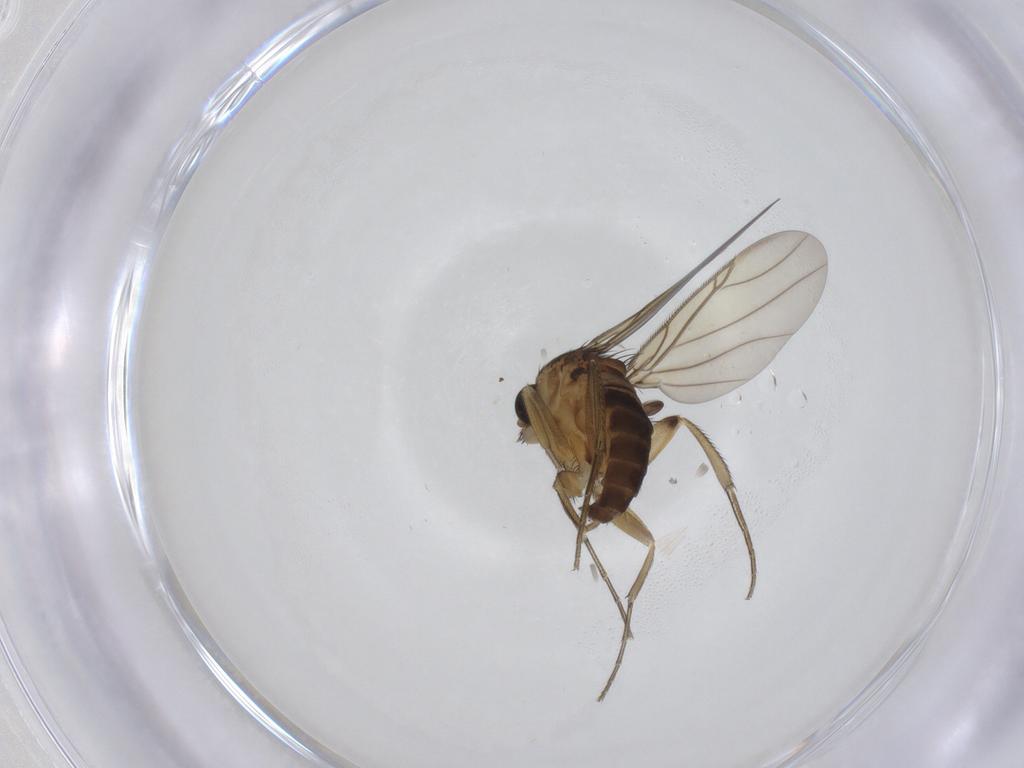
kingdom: Animalia
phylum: Arthropoda
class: Insecta
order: Diptera
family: Phoridae
